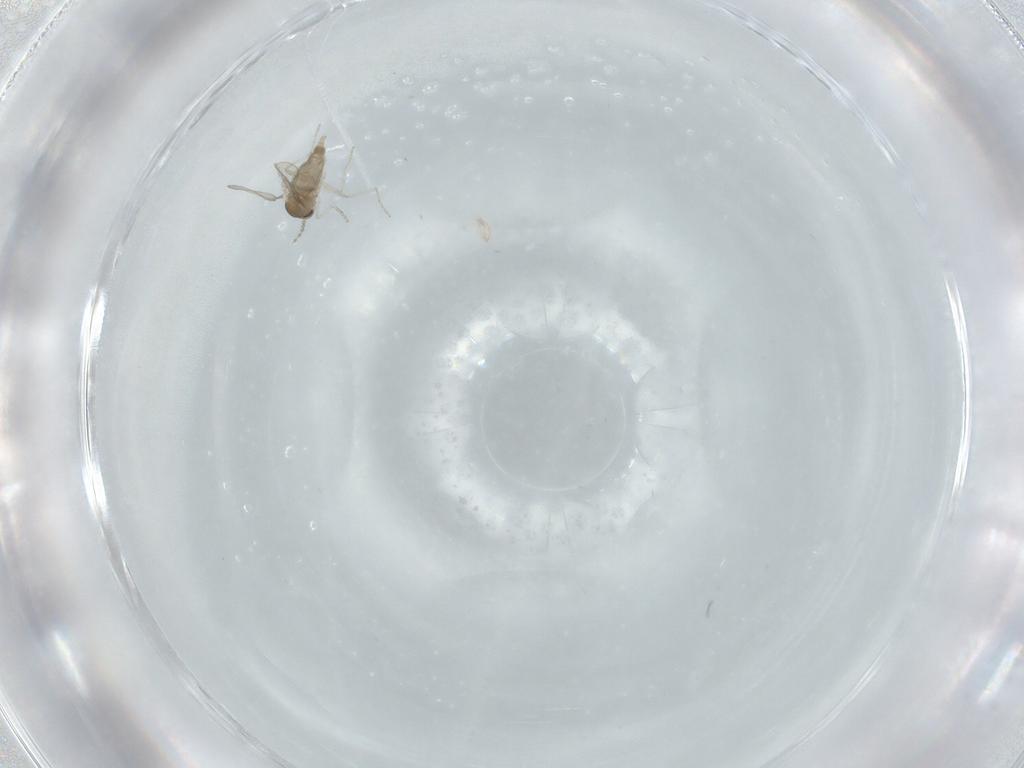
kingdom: Animalia
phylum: Arthropoda
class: Insecta
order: Diptera
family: Cecidomyiidae
